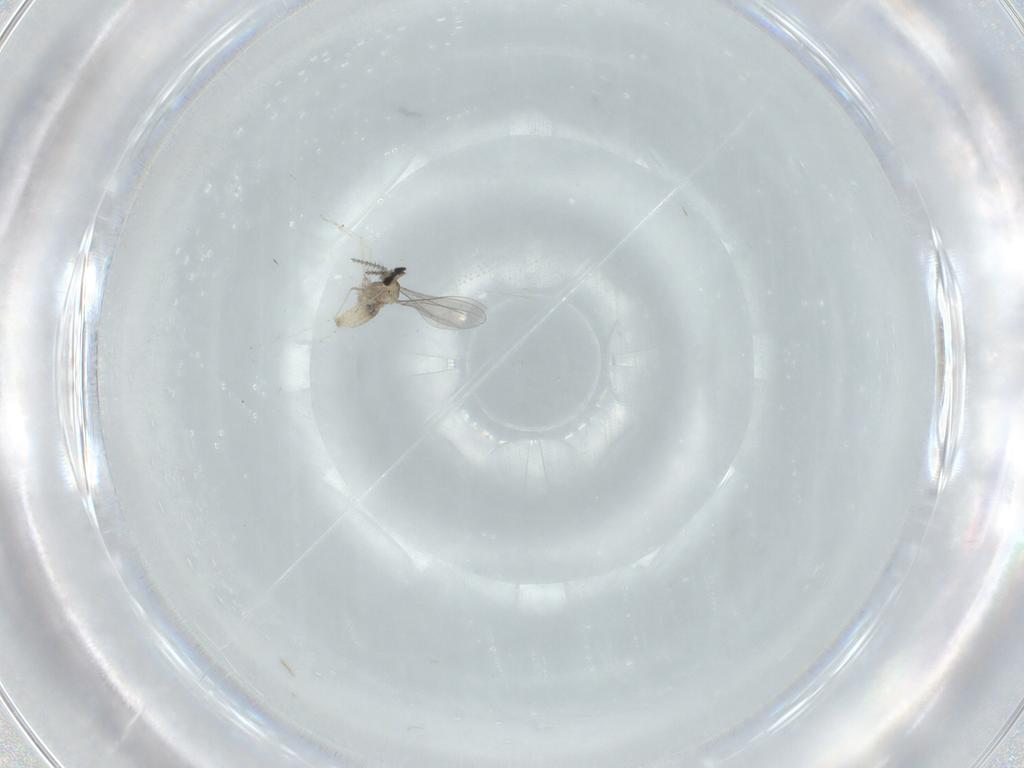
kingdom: Animalia
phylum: Arthropoda
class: Insecta
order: Diptera
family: Cecidomyiidae
